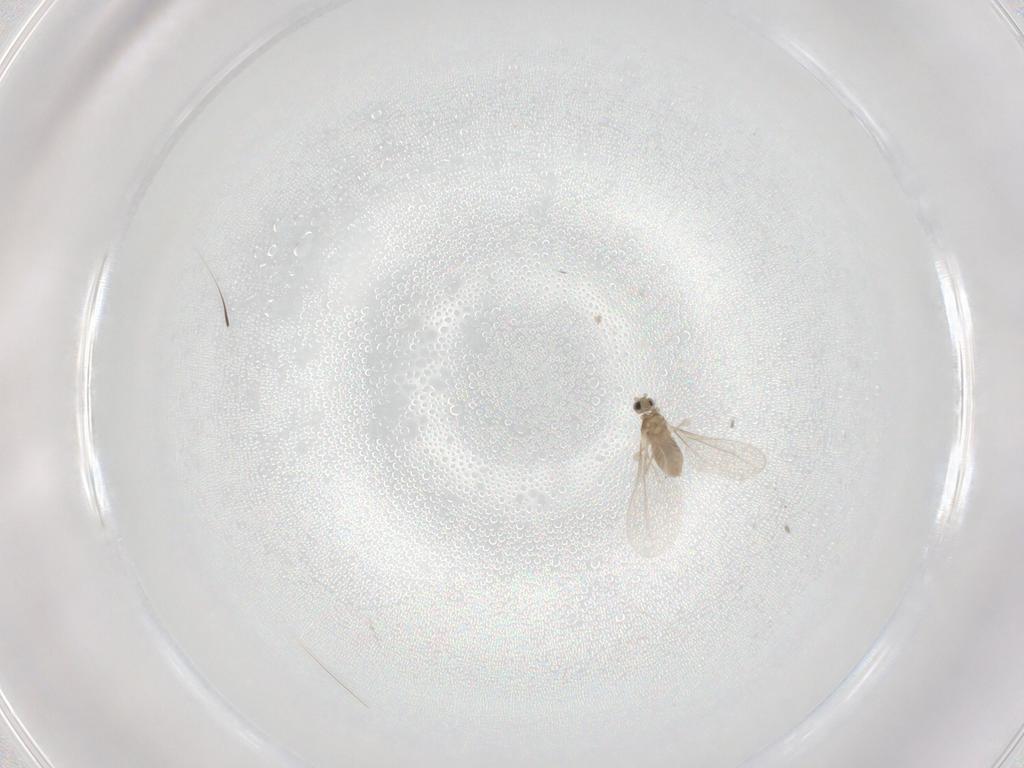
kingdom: Animalia
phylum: Arthropoda
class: Insecta
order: Diptera
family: Cecidomyiidae
